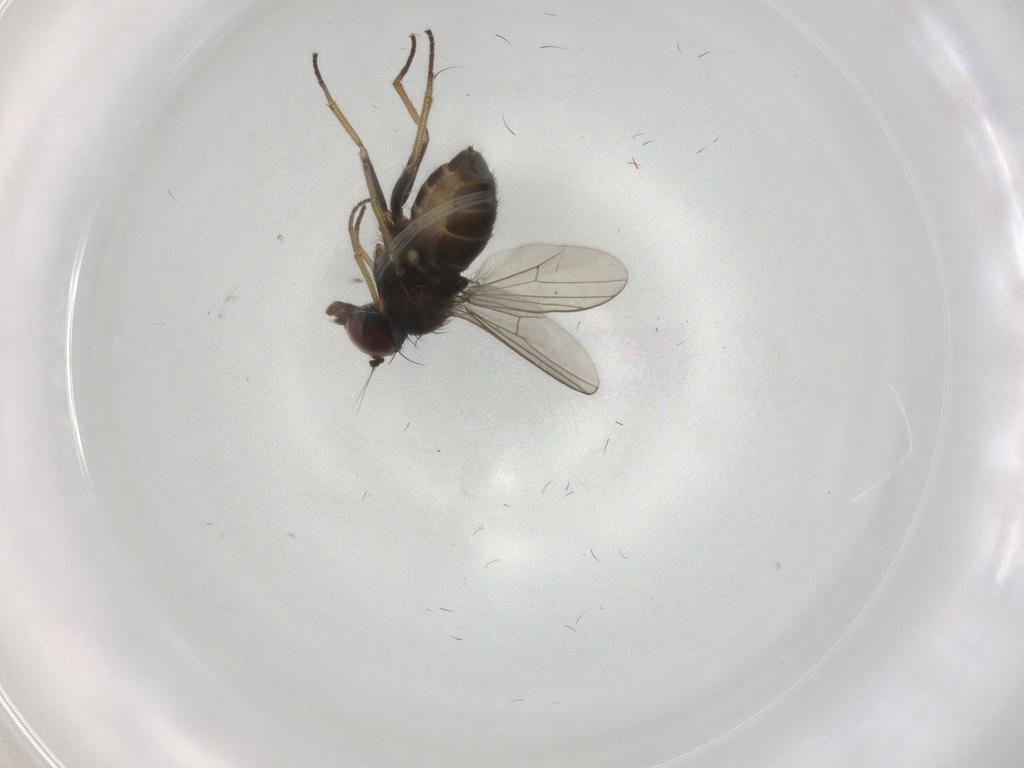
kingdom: Animalia
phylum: Arthropoda
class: Insecta
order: Diptera
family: Dolichopodidae
